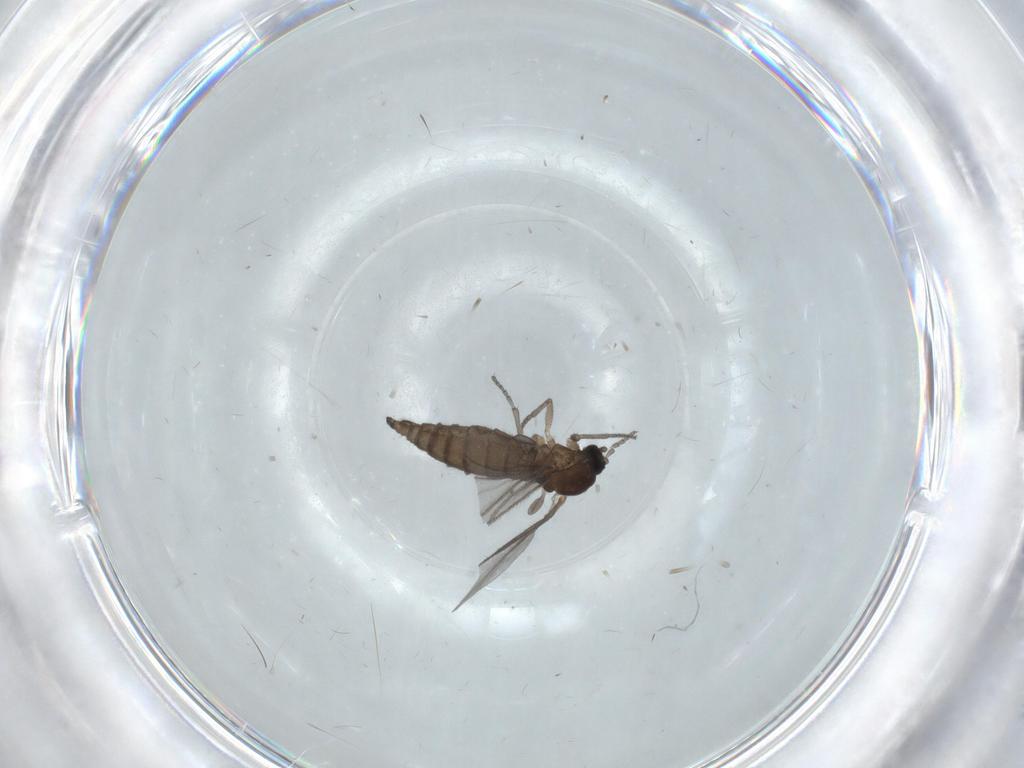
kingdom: Animalia
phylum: Arthropoda
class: Insecta
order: Diptera
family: Sciaridae
